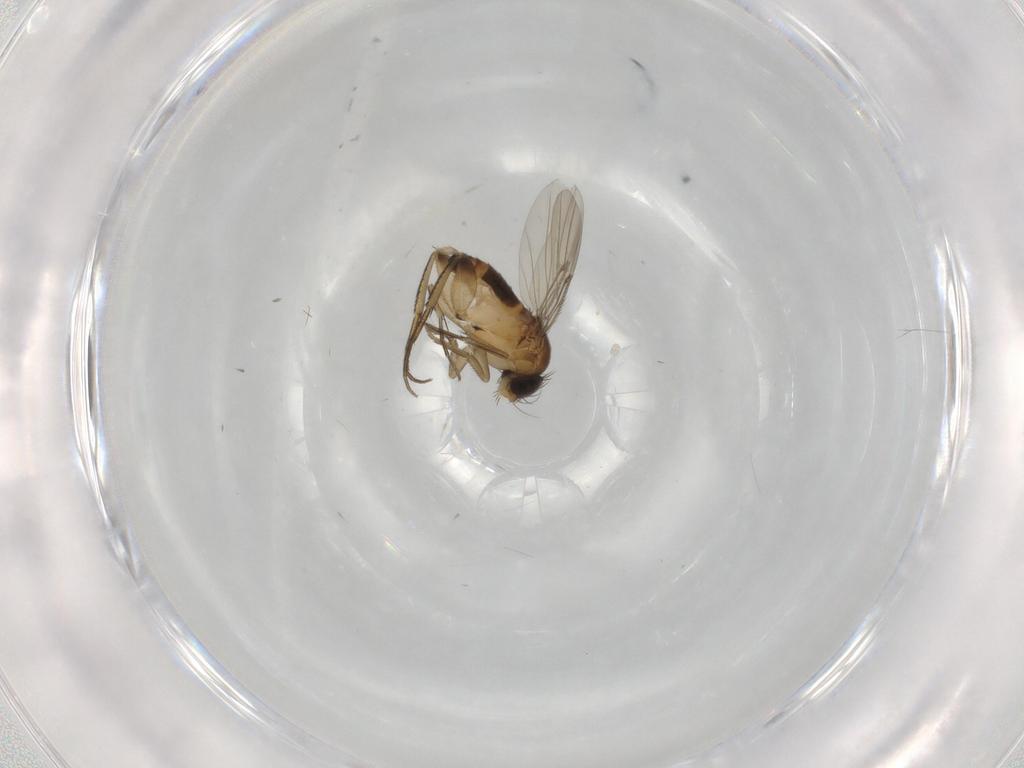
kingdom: Animalia
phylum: Arthropoda
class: Insecta
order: Diptera
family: Phoridae
